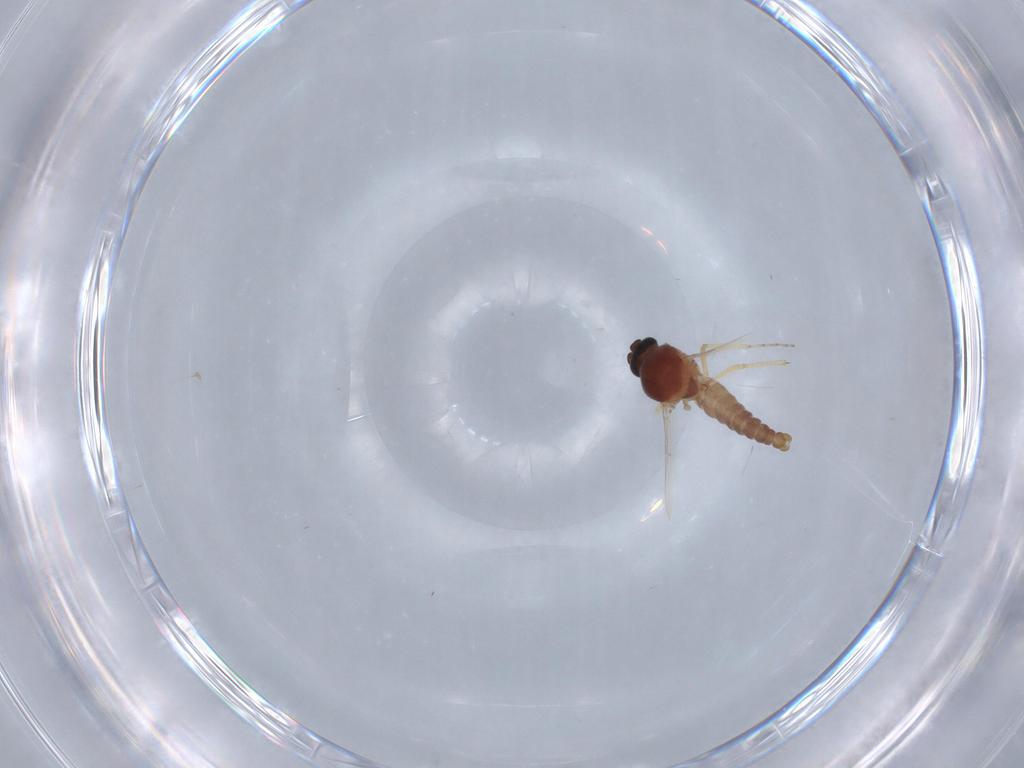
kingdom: Animalia
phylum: Arthropoda
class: Insecta
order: Diptera
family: Ceratopogonidae
